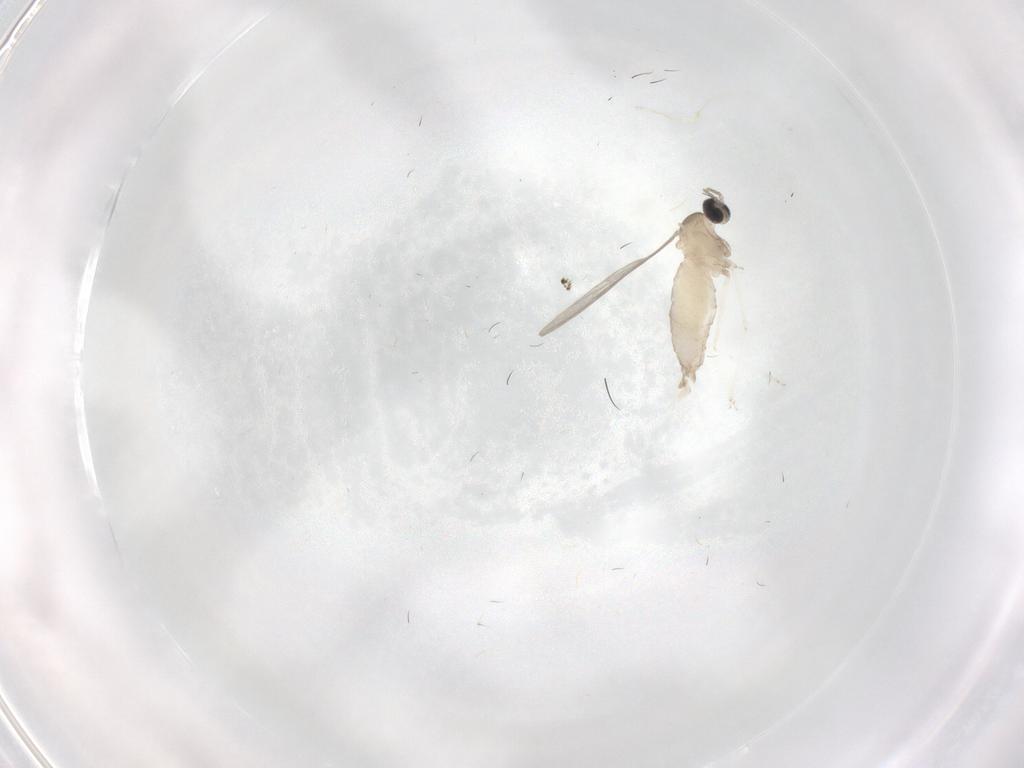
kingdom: Animalia
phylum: Arthropoda
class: Insecta
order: Diptera
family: Cecidomyiidae
